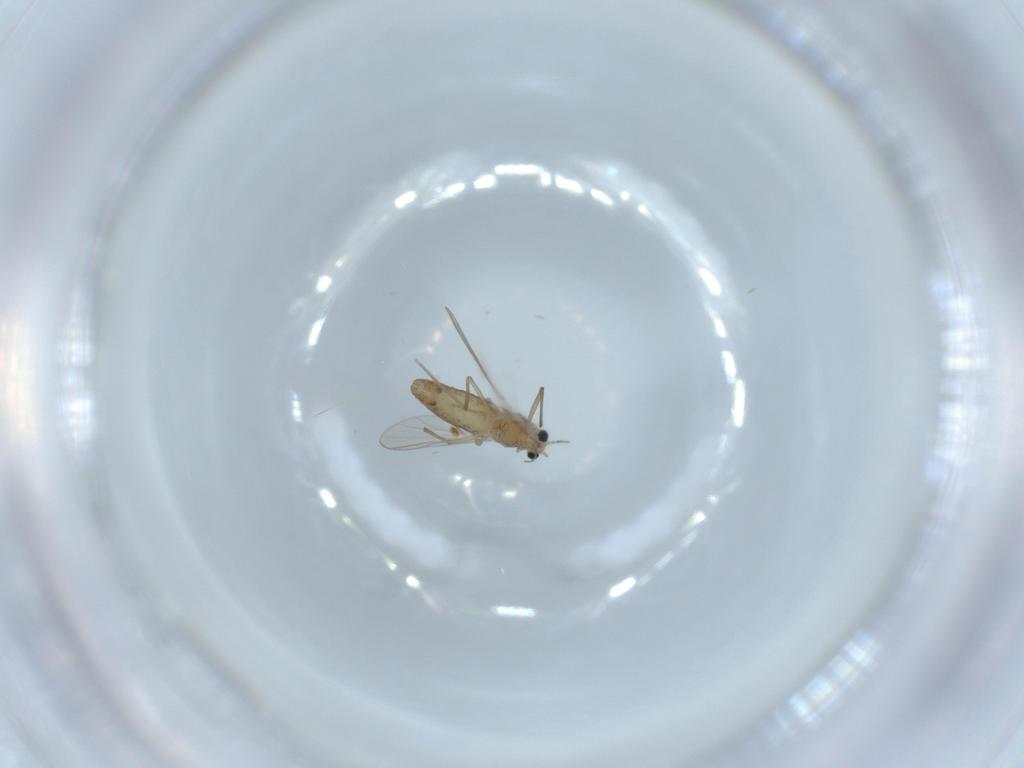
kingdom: Animalia
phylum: Arthropoda
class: Insecta
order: Diptera
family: Chironomidae
